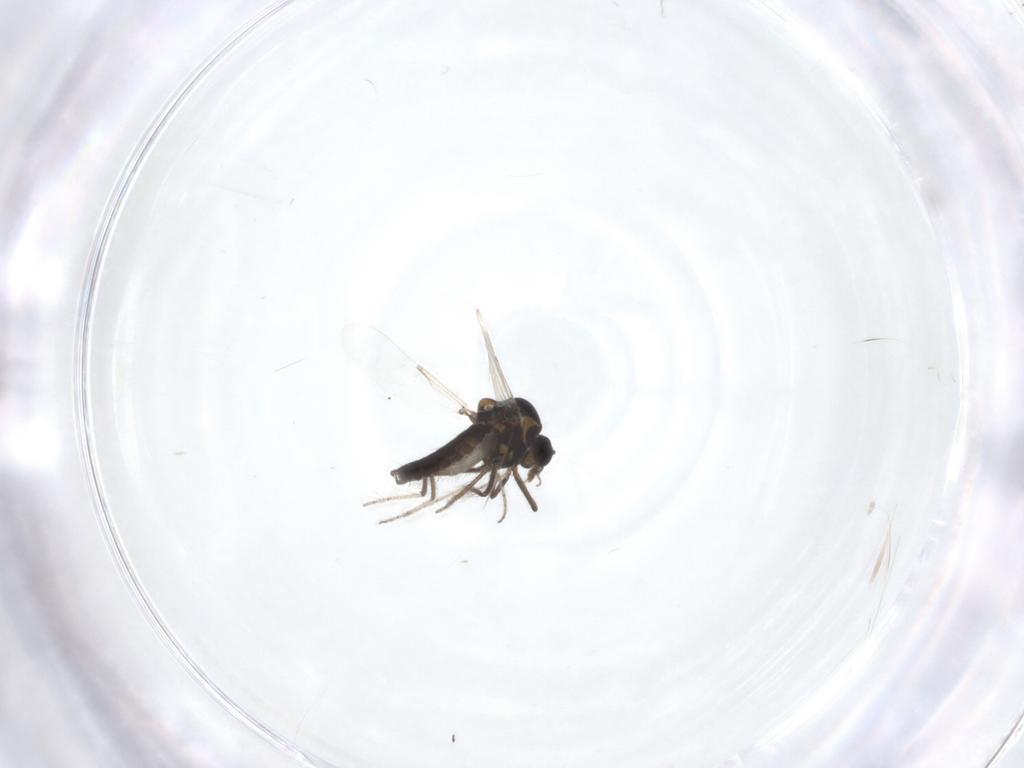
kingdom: Animalia
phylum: Arthropoda
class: Insecta
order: Diptera
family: Ceratopogonidae
